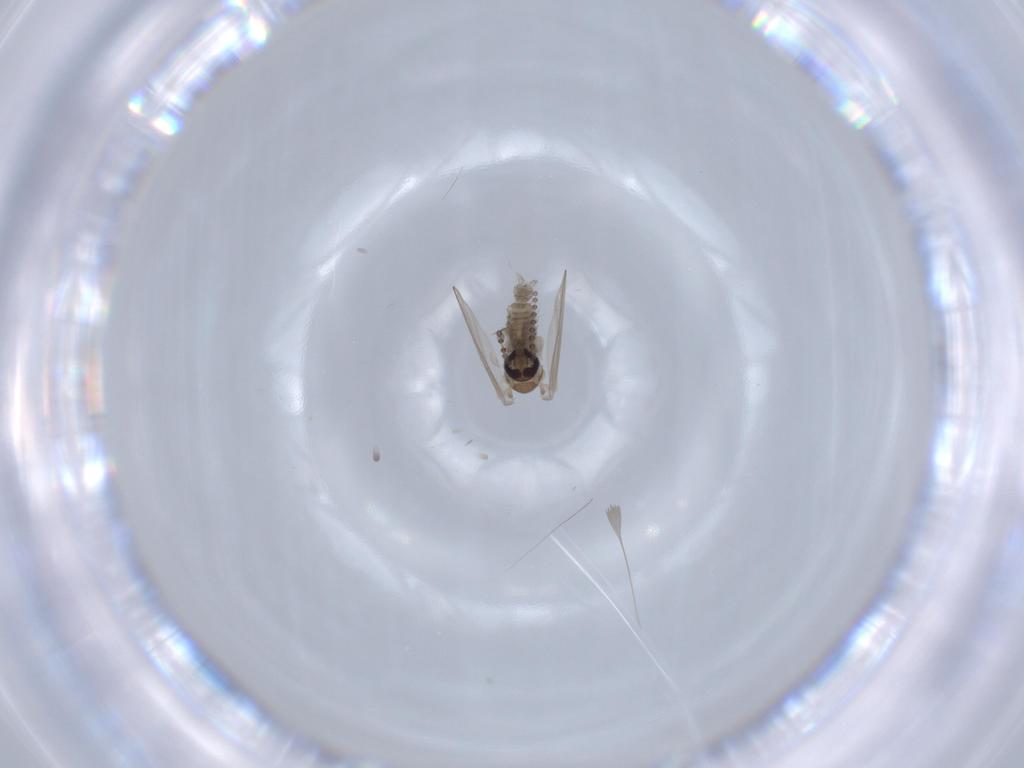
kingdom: Animalia
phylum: Arthropoda
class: Insecta
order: Diptera
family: Psychodidae
